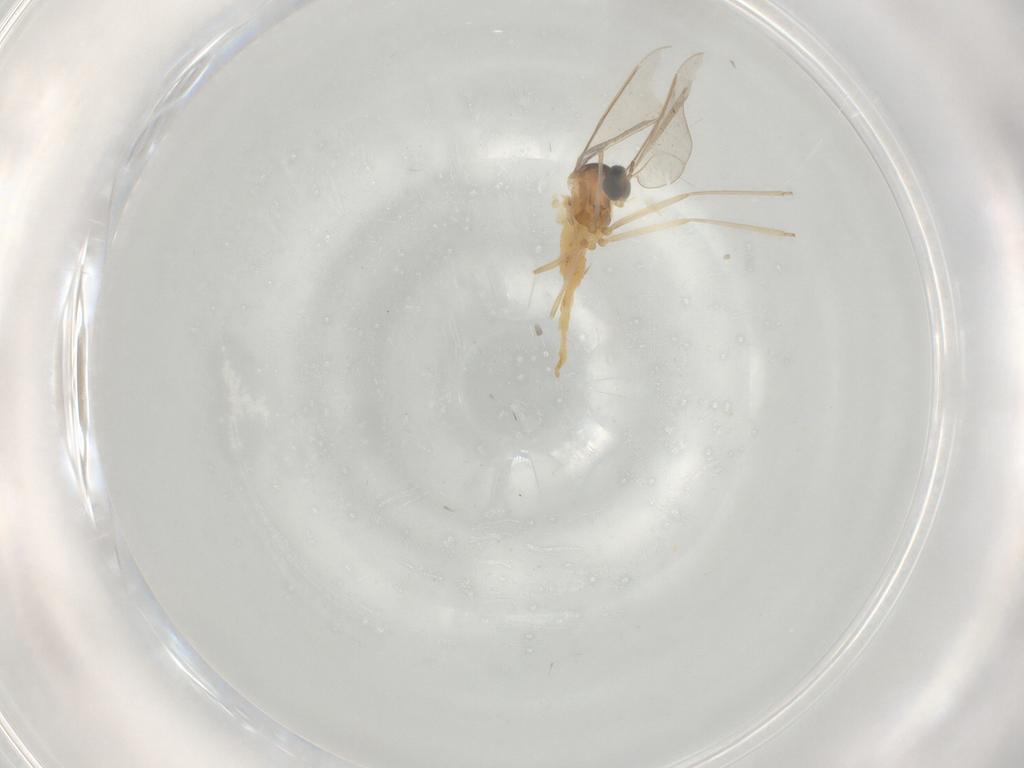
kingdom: Animalia
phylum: Arthropoda
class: Insecta
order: Diptera
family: Cecidomyiidae
